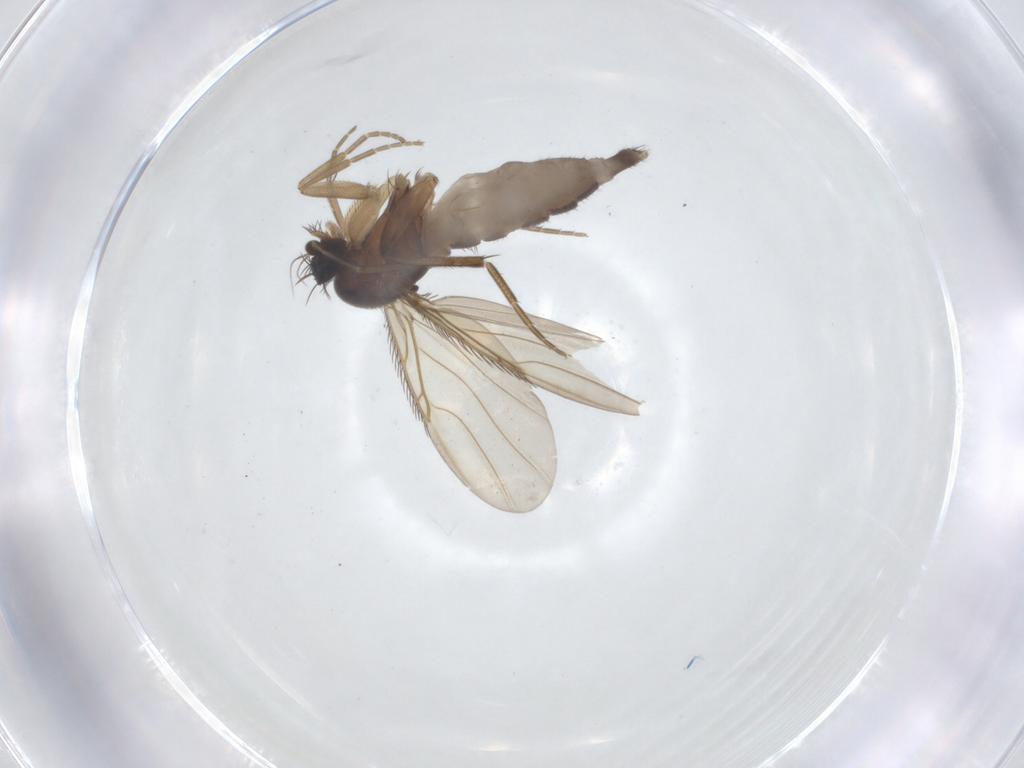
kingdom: Animalia
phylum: Arthropoda
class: Insecta
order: Diptera
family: Phoridae
